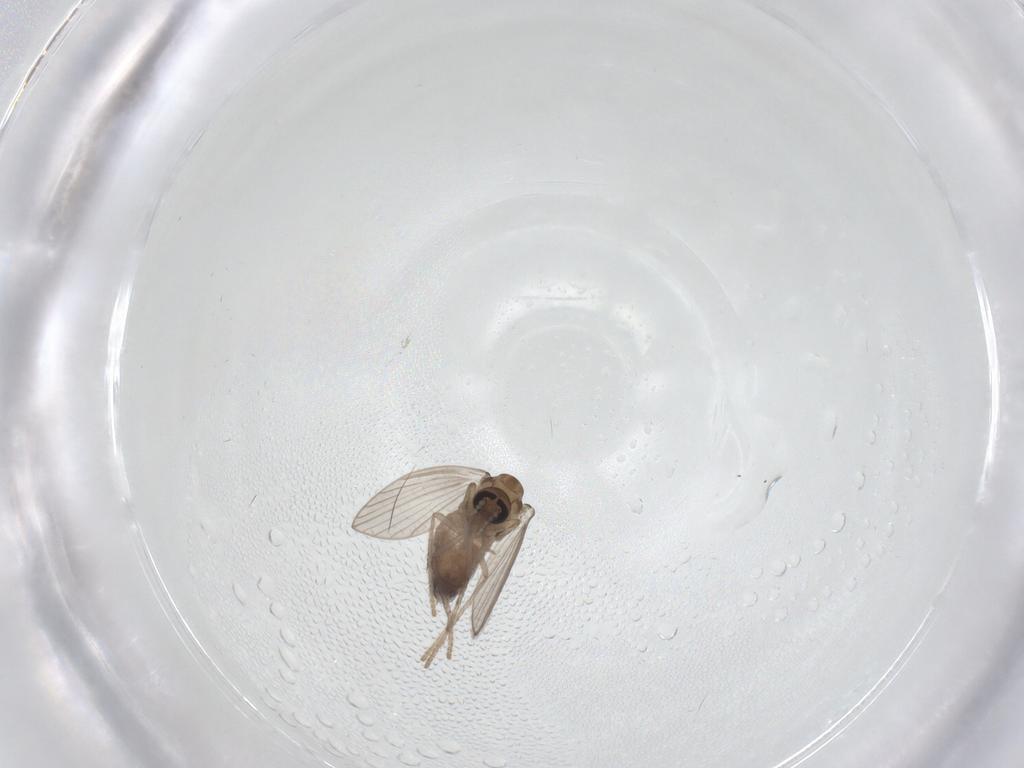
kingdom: Animalia
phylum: Arthropoda
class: Insecta
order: Diptera
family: Psychodidae
